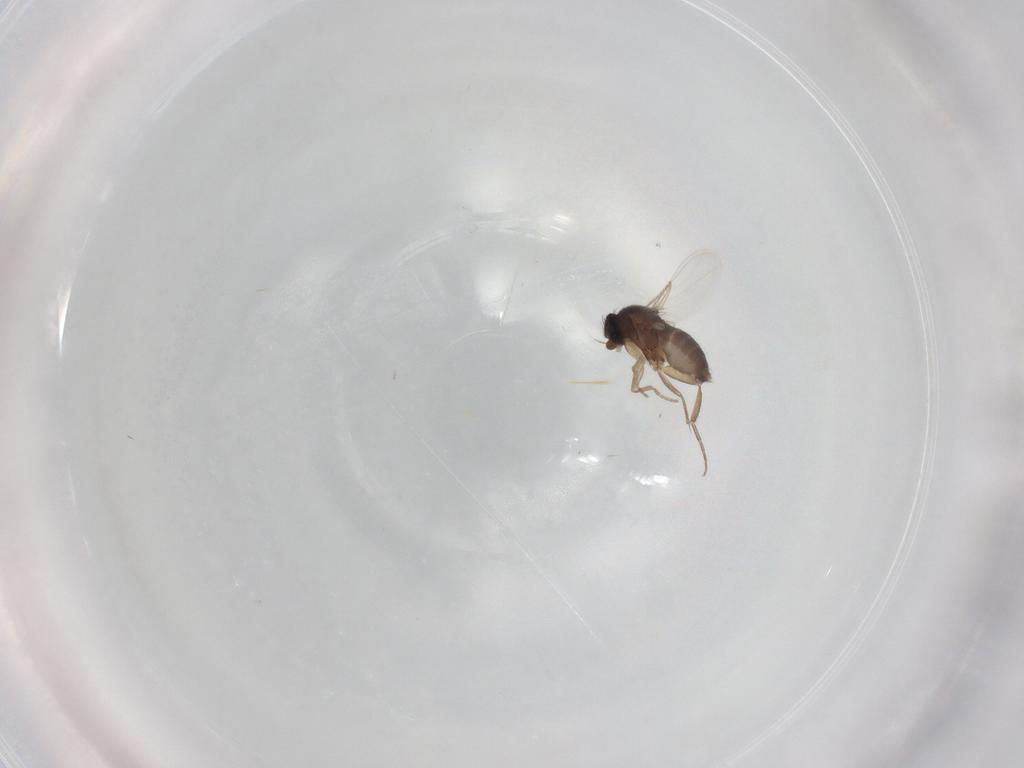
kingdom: Animalia
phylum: Arthropoda
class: Insecta
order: Diptera
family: Phoridae
